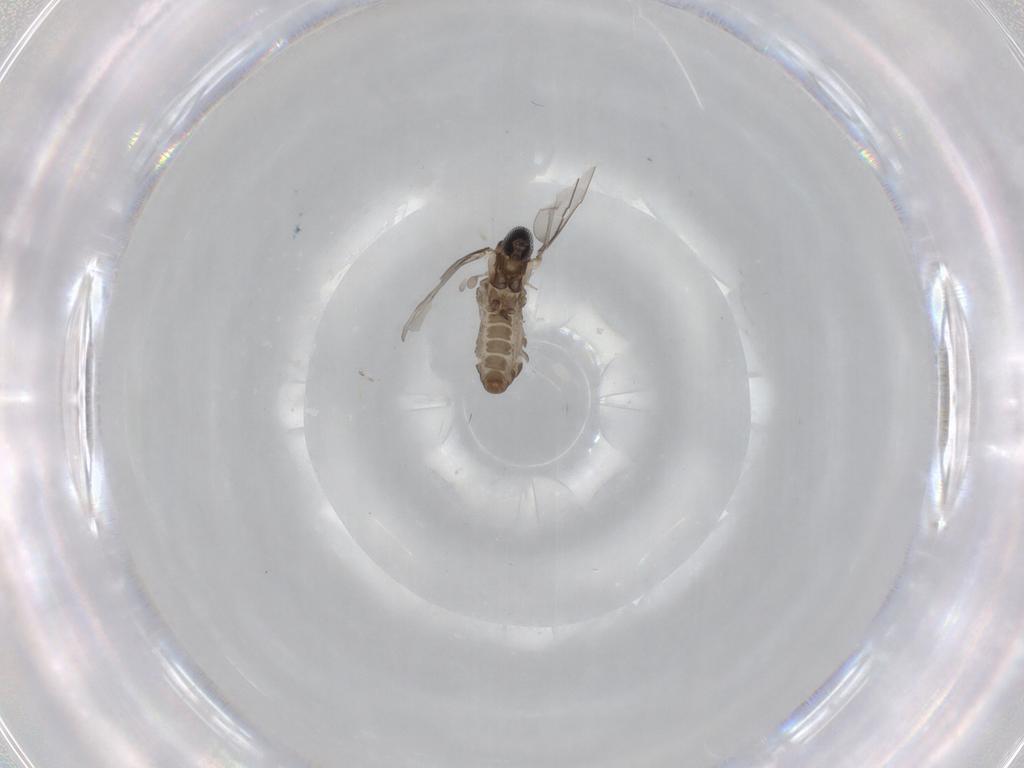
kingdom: Animalia
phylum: Arthropoda
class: Insecta
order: Diptera
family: Cecidomyiidae
